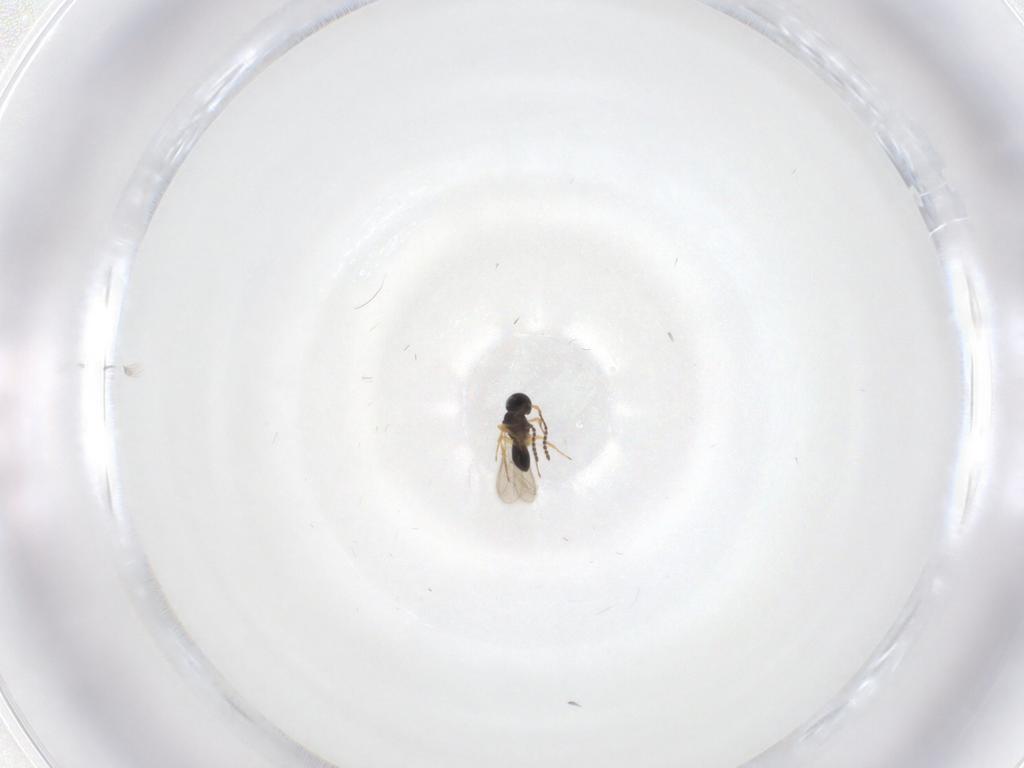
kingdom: Animalia
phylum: Arthropoda
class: Insecta
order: Hymenoptera
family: Scelionidae
